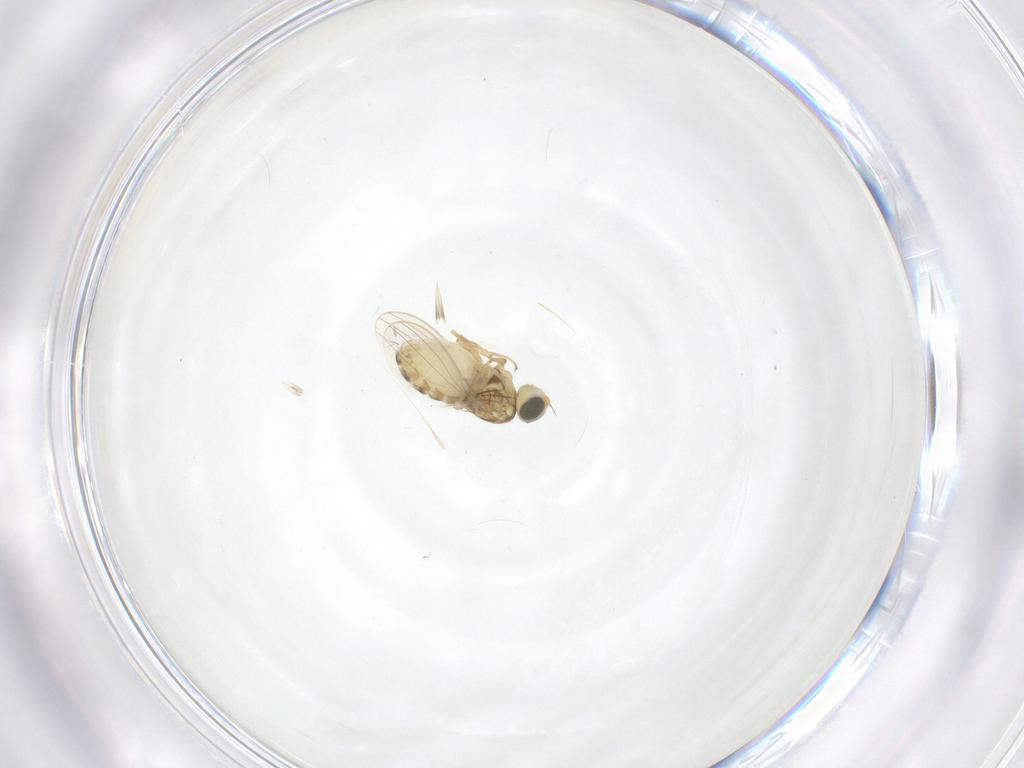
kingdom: Animalia
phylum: Arthropoda
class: Insecta
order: Diptera
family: Chyromyidae
